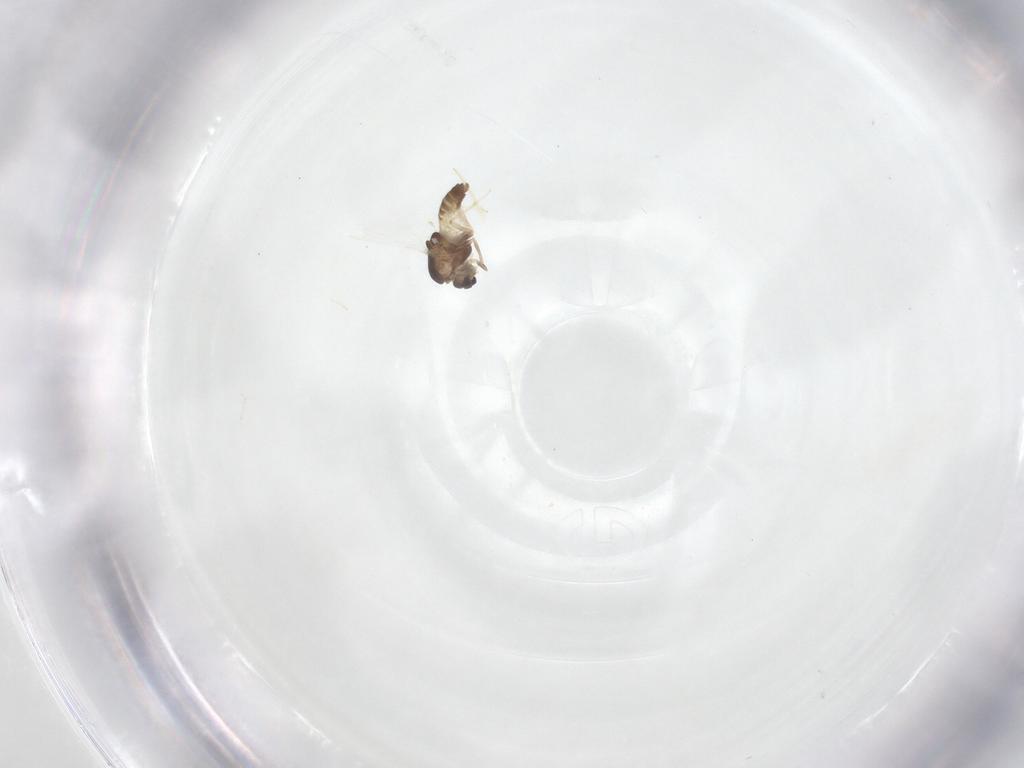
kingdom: Animalia
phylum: Arthropoda
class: Insecta
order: Diptera
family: Chironomidae
